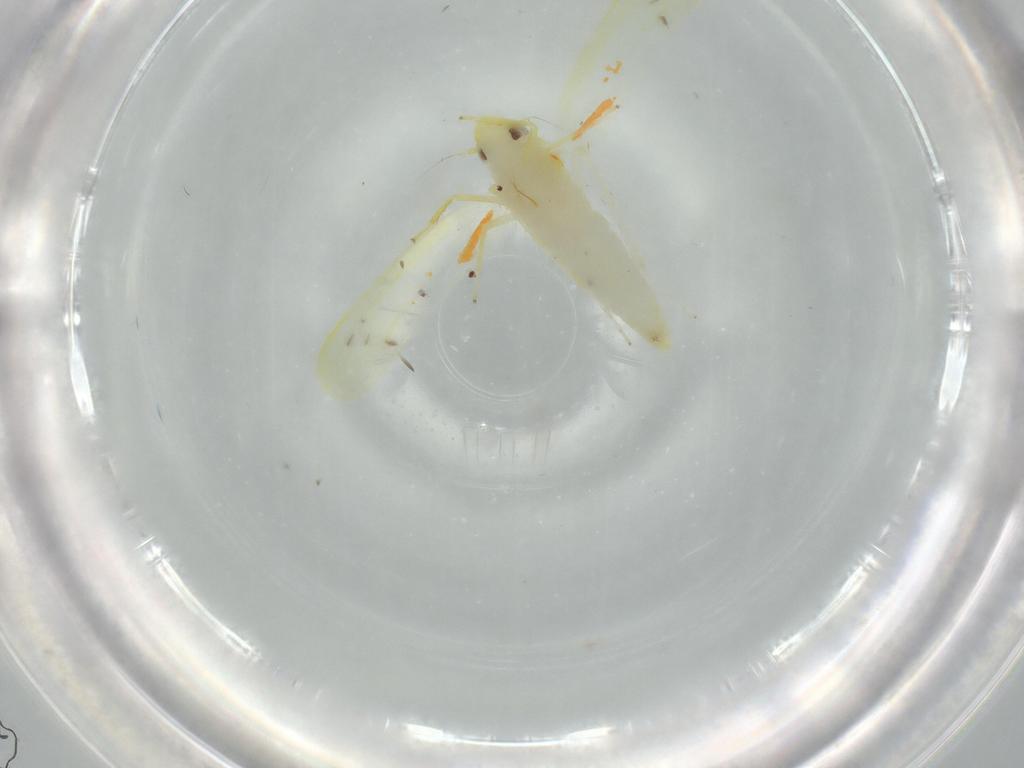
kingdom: Animalia
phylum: Arthropoda
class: Insecta
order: Hemiptera
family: Cicadellidae
